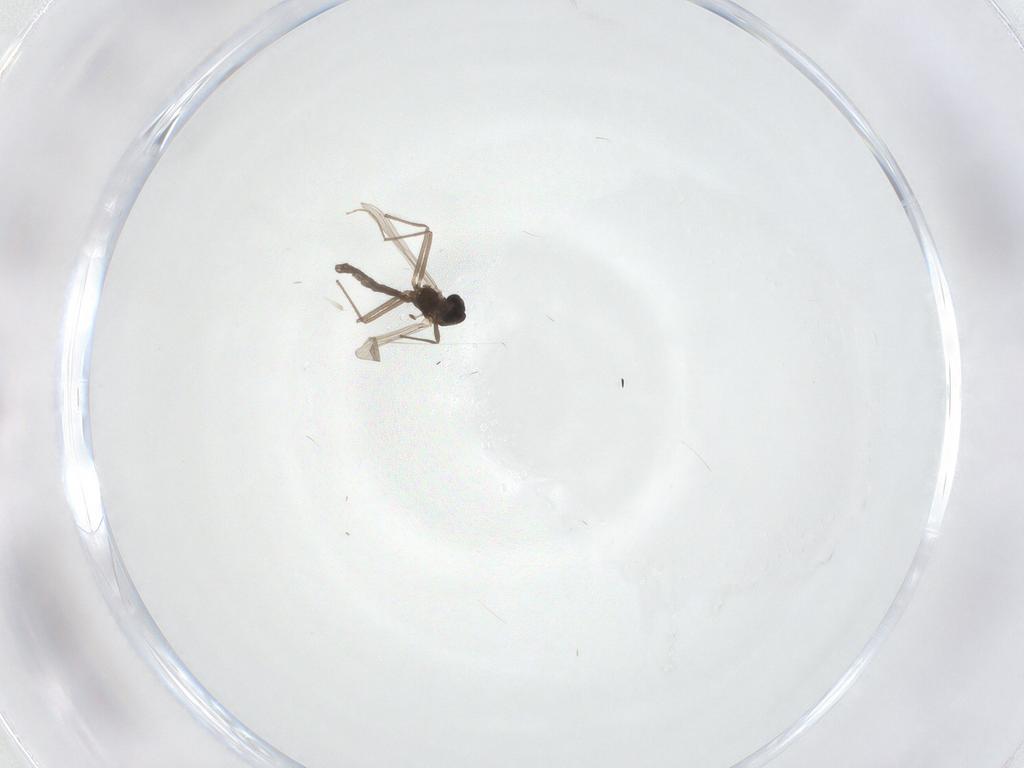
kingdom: Animalia
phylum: Arthropoda
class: Insecta
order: Diptera
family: Chironomidae
